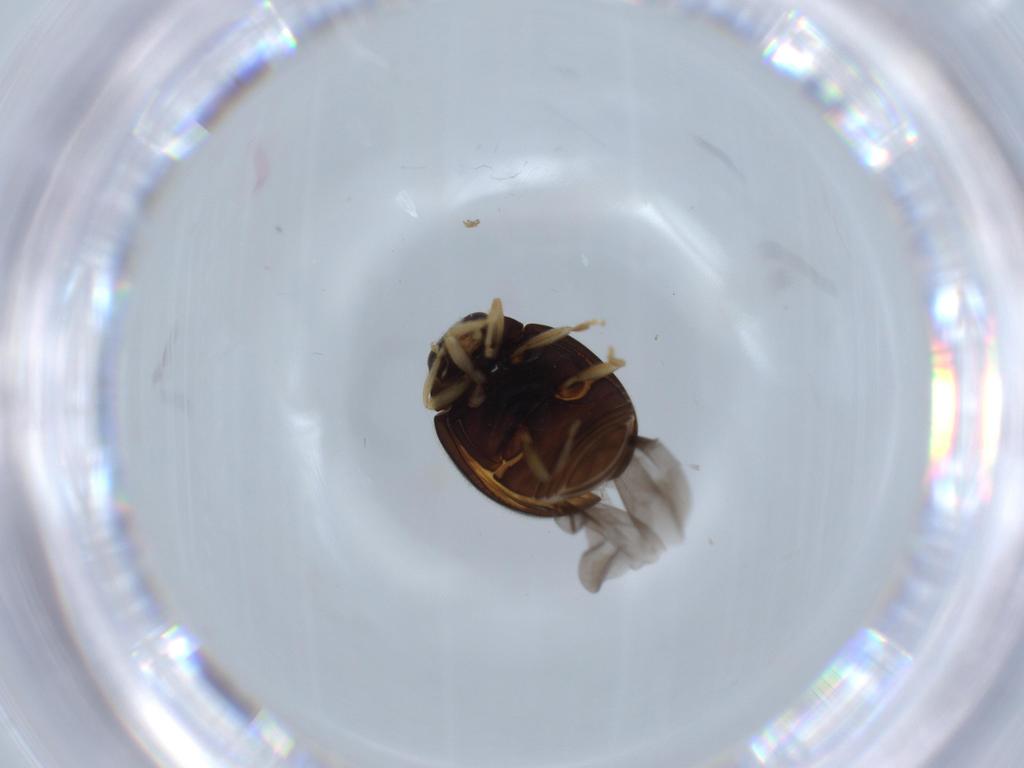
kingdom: Animalia
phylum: Arthropoda
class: Insecta
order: Coleoptera
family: Coccinellidae
